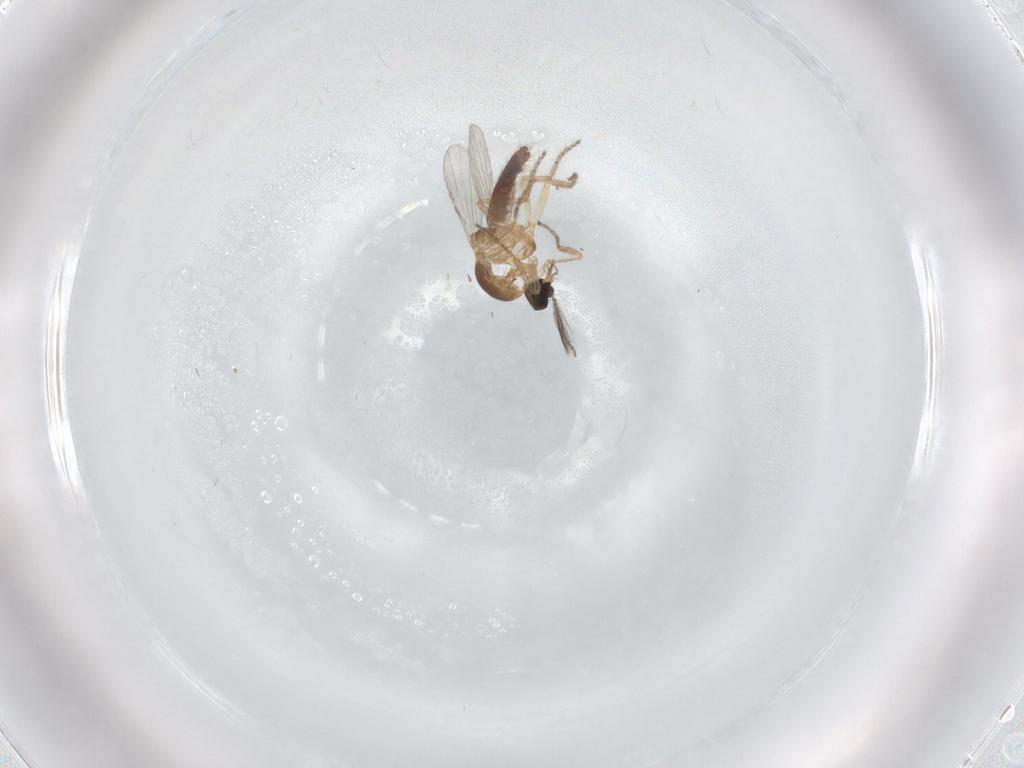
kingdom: Animalia
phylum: Arthropoda
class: Insecta
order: Diptera
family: Ceratopogonidae
